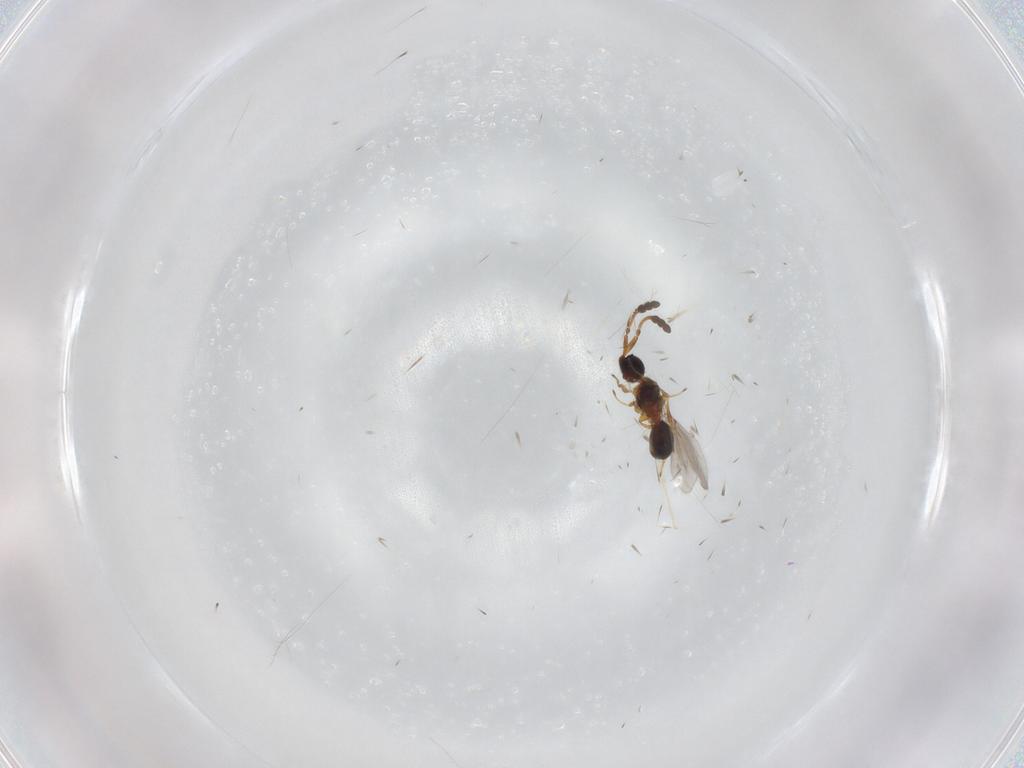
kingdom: Animalia
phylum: Arthropoda
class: Insecta
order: Hymenoptera
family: Diapriidae
